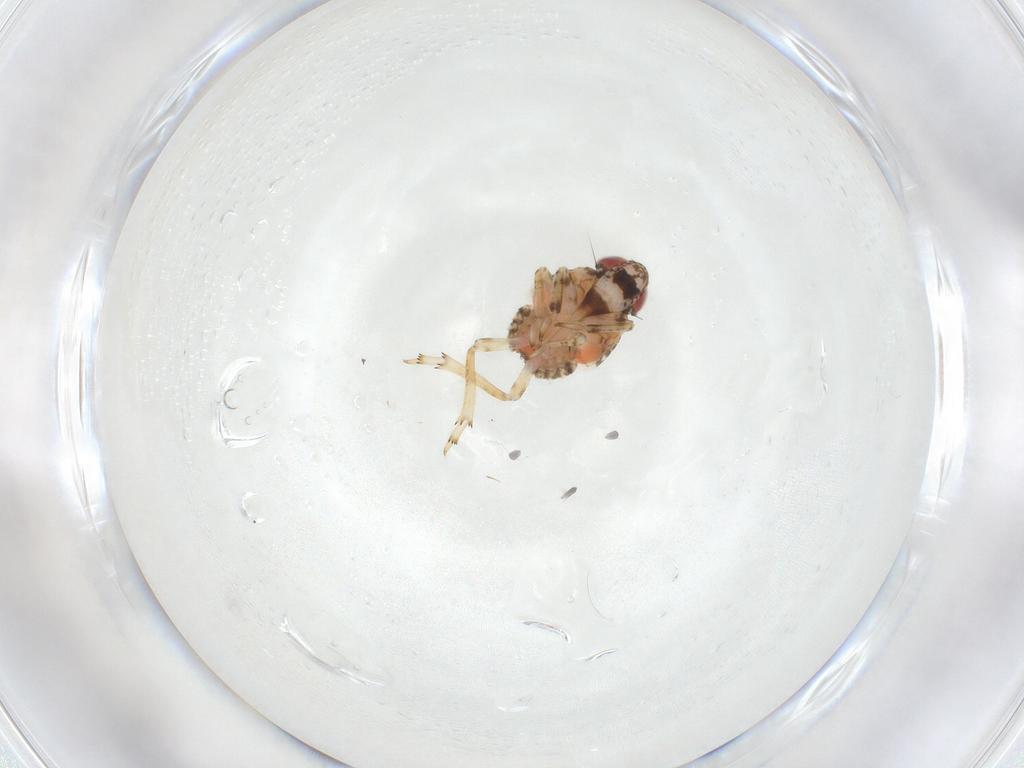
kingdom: Animalia
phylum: Arthropoda
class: Insecta
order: Hemiptera
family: Issidae
